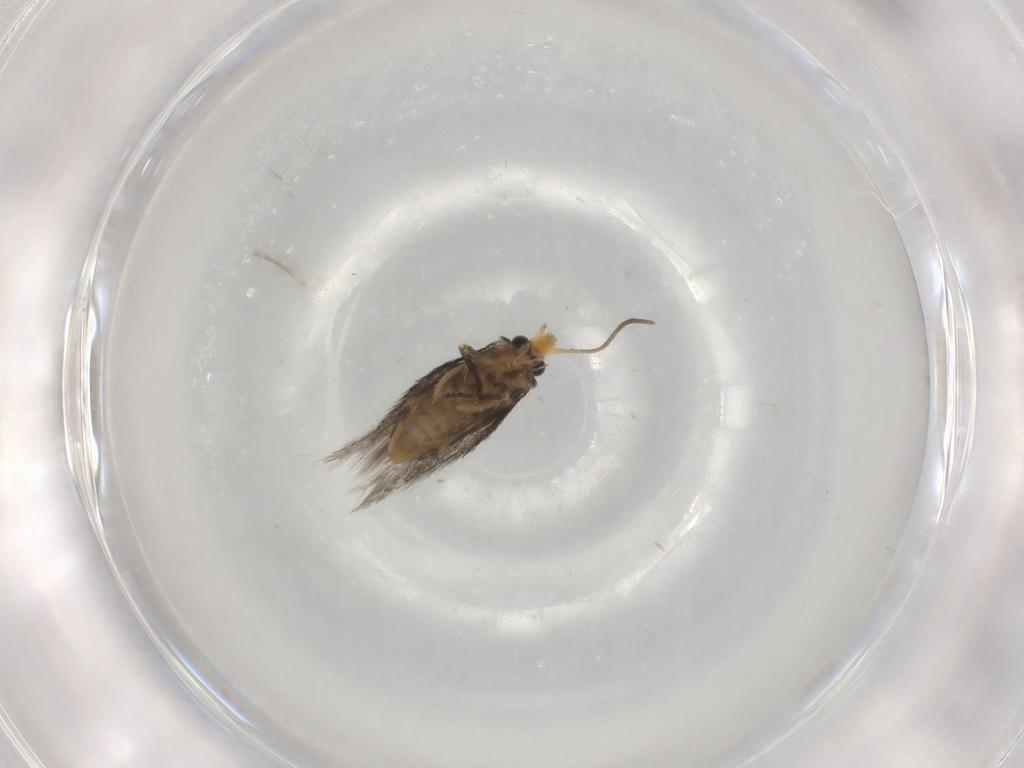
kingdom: Animalia
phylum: Arthropoda
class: Insecta
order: Lepidoptera
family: Nepticulidae
